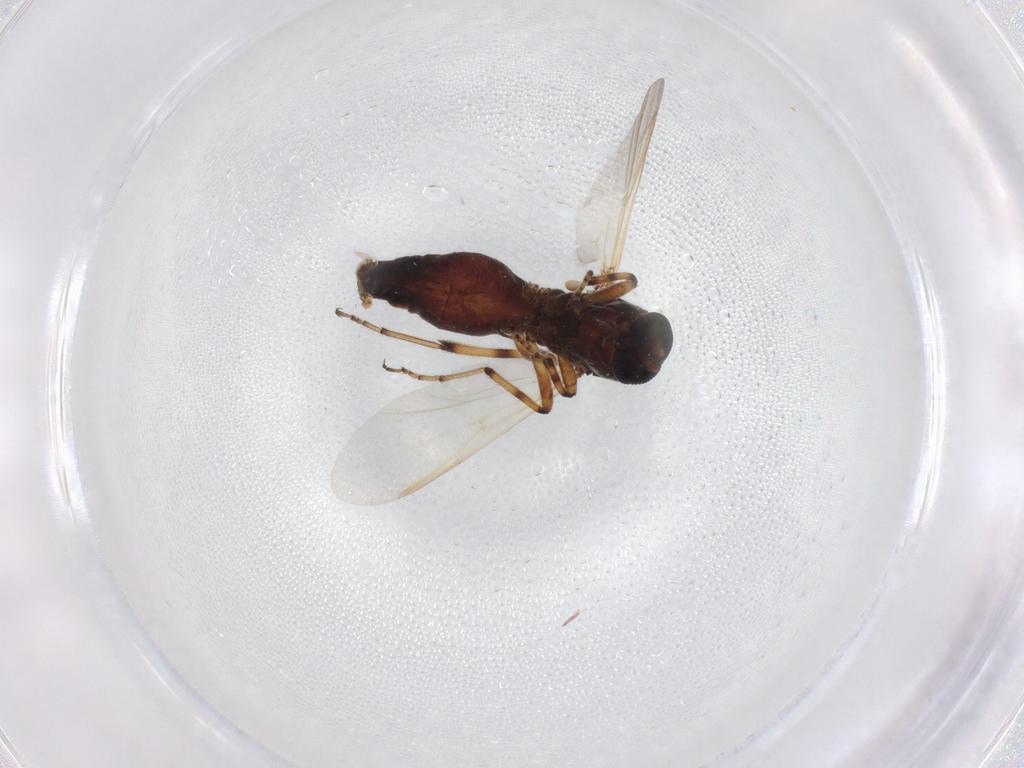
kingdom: Animalia
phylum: Arthropoda
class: Insecta
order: Diptera
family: Ceratopogonidae
